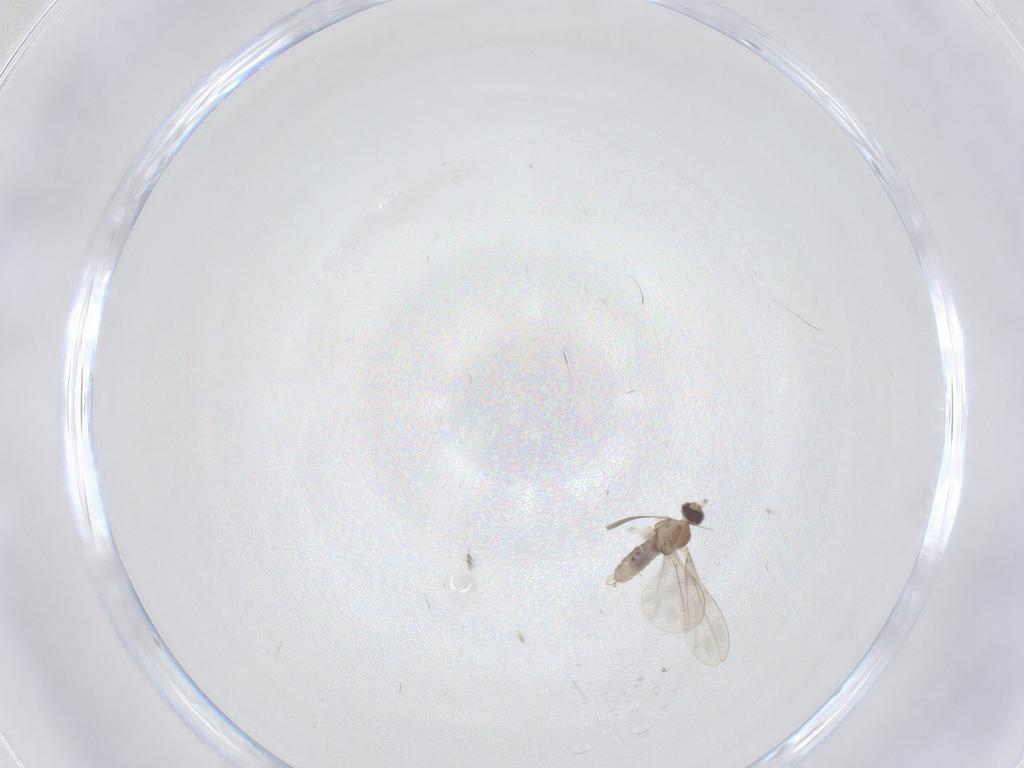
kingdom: Animalia
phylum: Arthropoda
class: Insecta
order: Diptera
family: Cecidomyiidae
